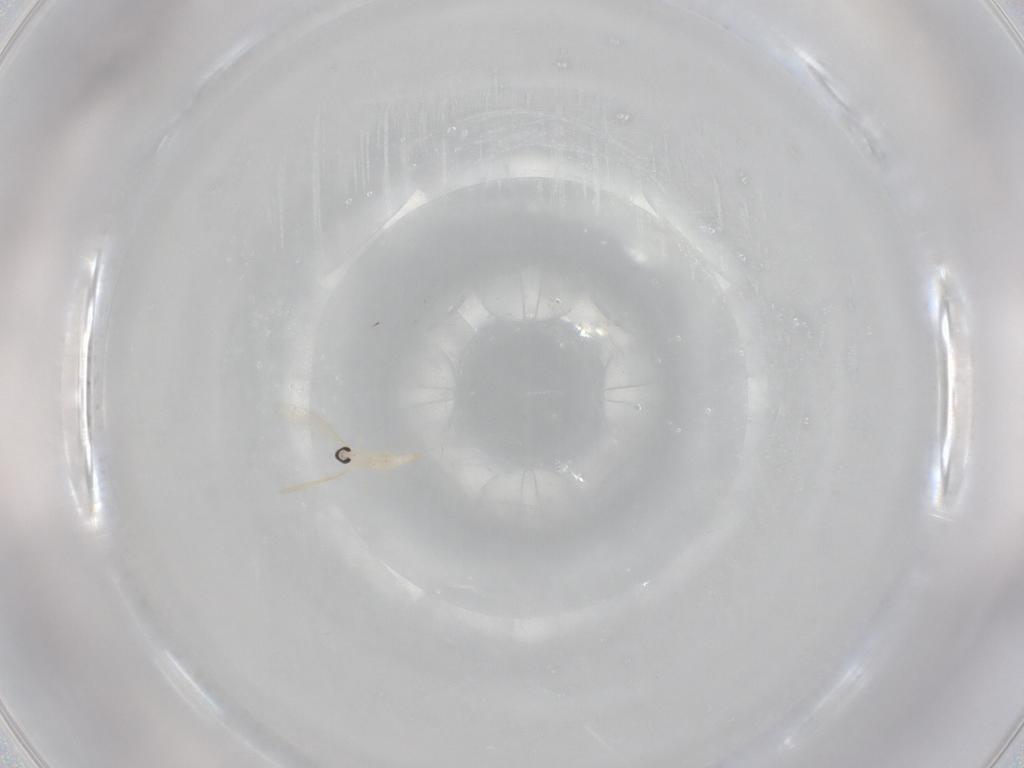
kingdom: Animalia
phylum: Arthropoda
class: Insecta
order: Diptera
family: Cecidomyiidae
